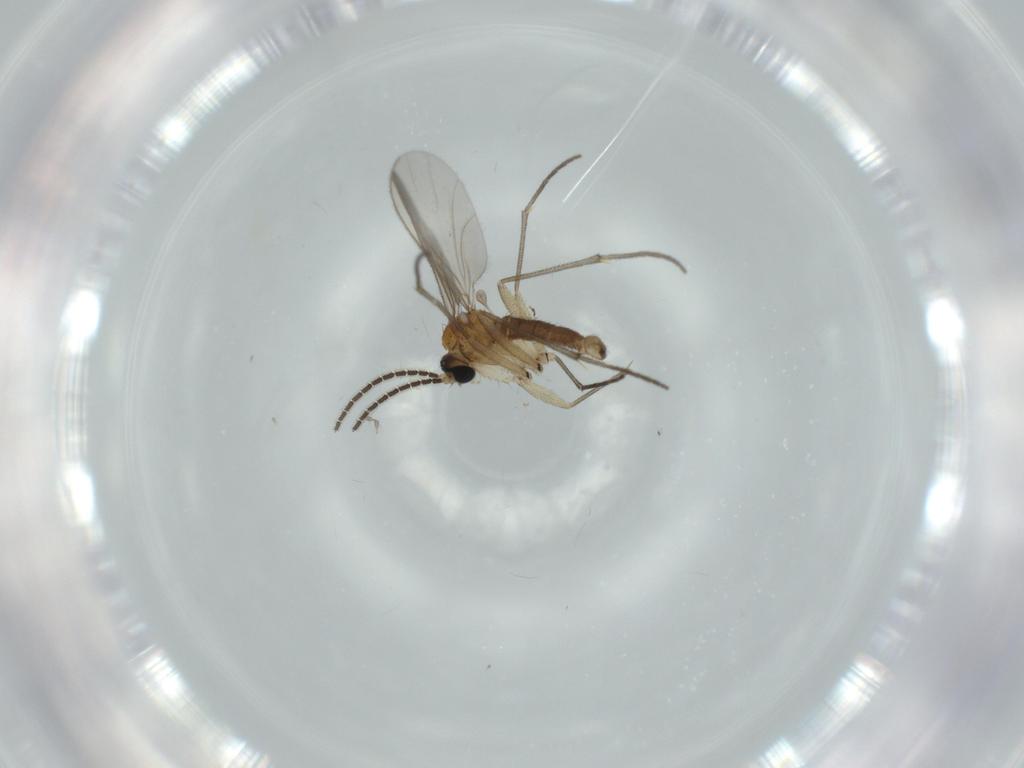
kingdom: Animalia
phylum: Arthropoda
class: Insecta
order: Diptera
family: Sciaridae
